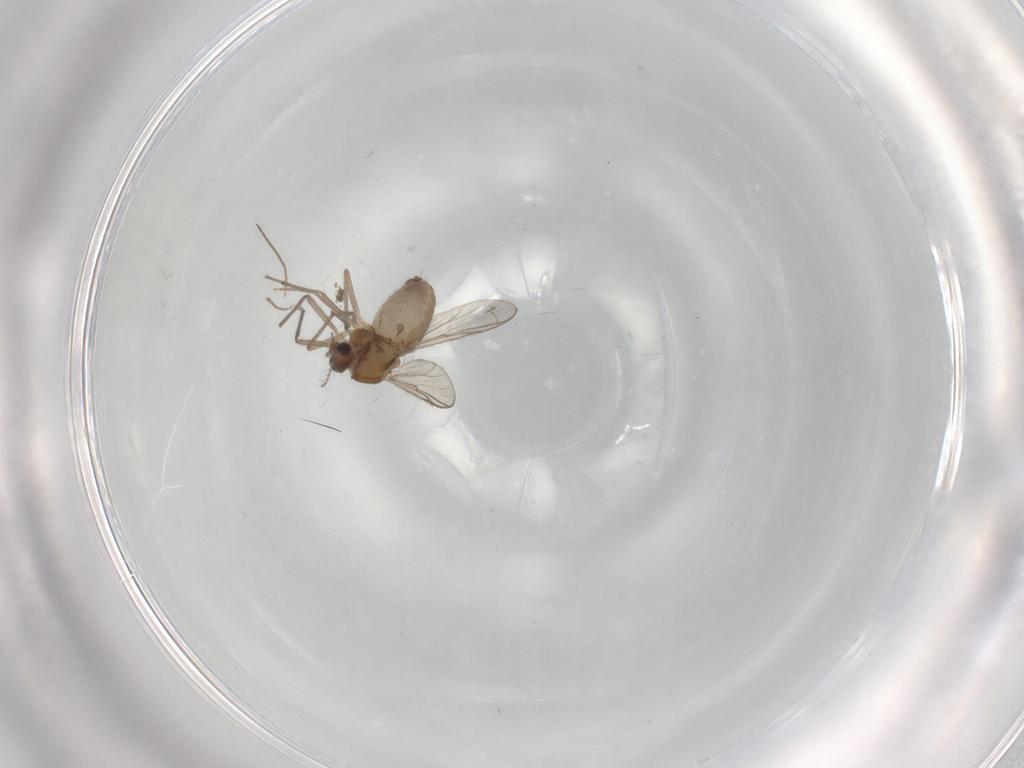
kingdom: Animalia
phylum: Arthropoda
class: Insecta
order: Diptera
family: Chironomidae
